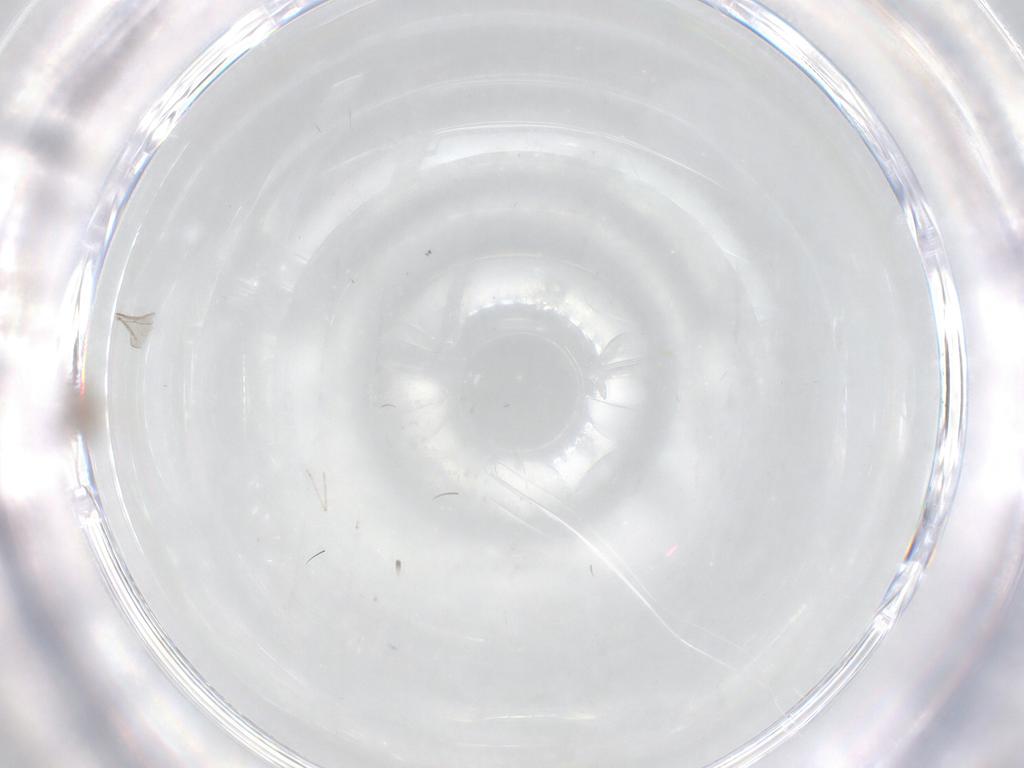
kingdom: Animalia
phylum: Arthropoda
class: Insecta
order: Diptera
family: Cecidomyiidae
